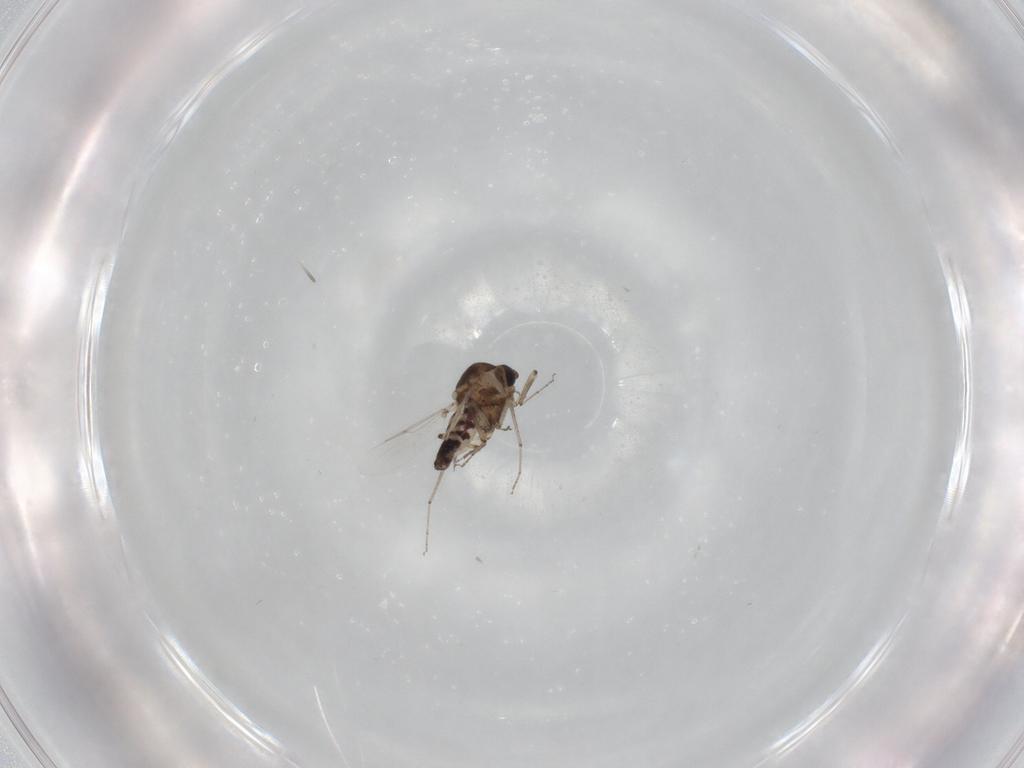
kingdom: Animalia
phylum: Arthropoda
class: Insecta
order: Diptera
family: Ceratopogonidae
